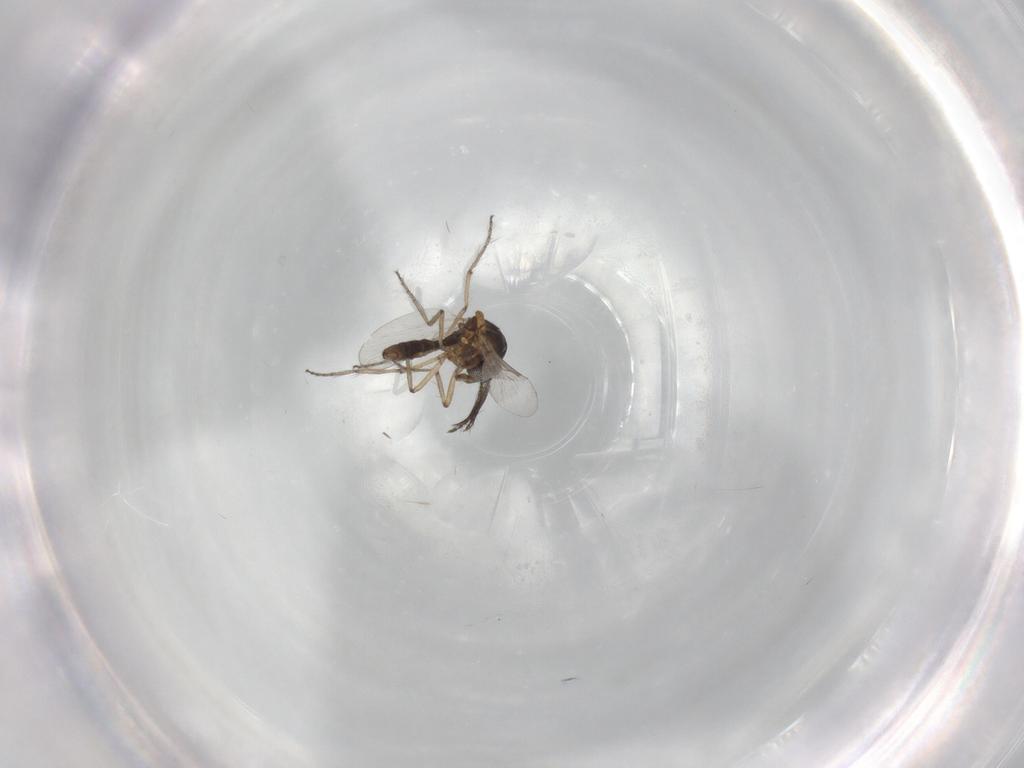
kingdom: Animalia
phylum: Arthropoda
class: Insecta
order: Diptera
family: Ceratopogonidae
